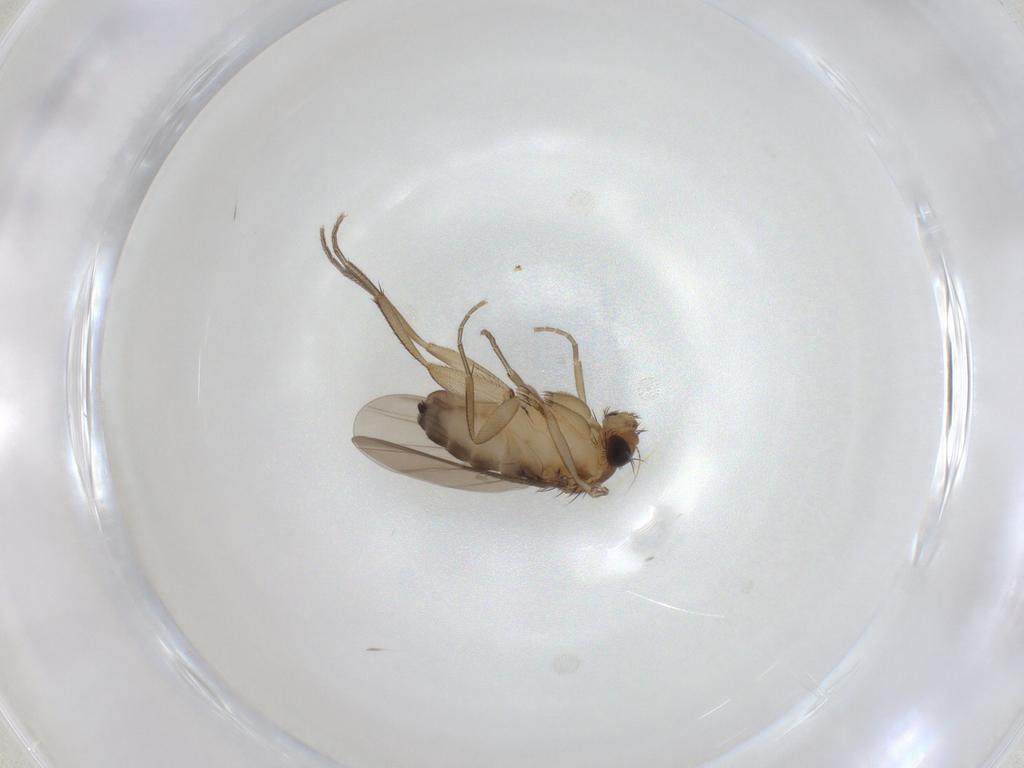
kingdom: Animalia
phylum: Arthropoda
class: Insecta
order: Diptera
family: Phoridae
